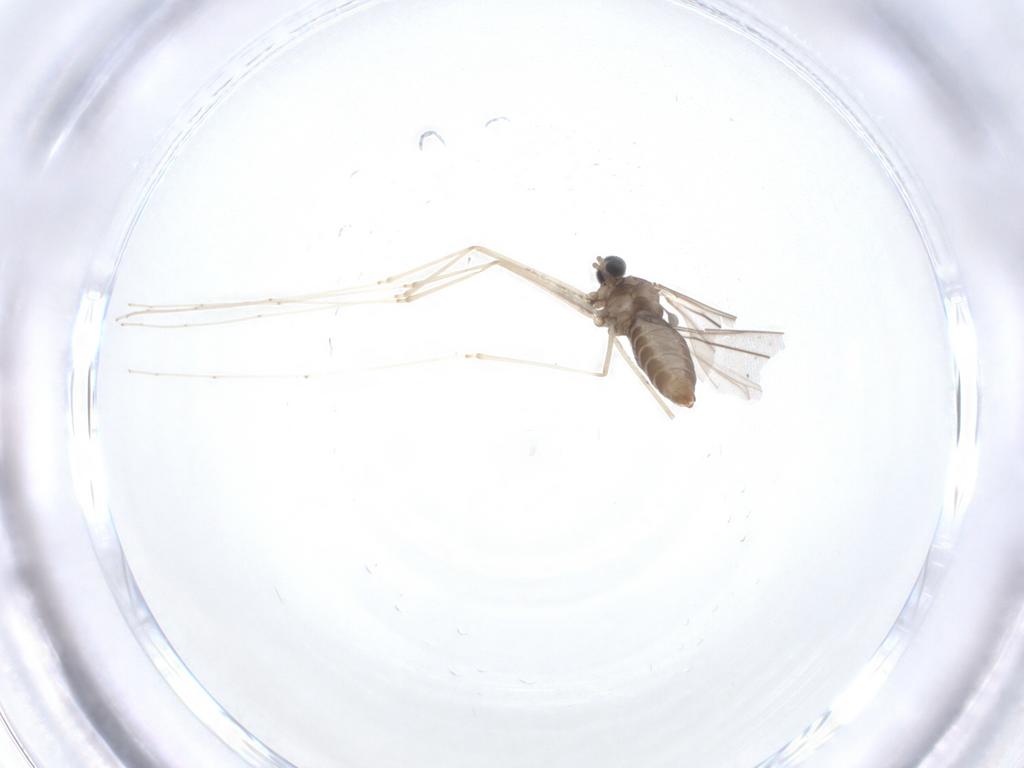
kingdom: Animalia
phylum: Arthropoda
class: Insecta
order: Diptera
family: Cecidomyiidae
